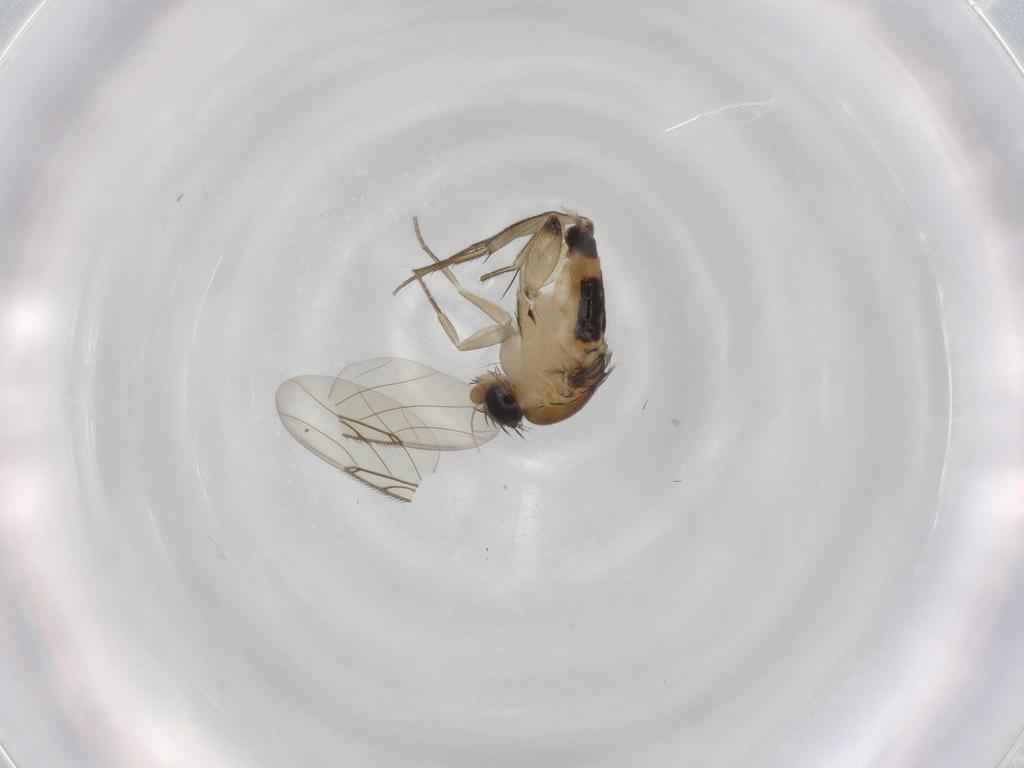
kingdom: Animalia
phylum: Arthropoda
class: Insecta
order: Diptera
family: Phoridae
